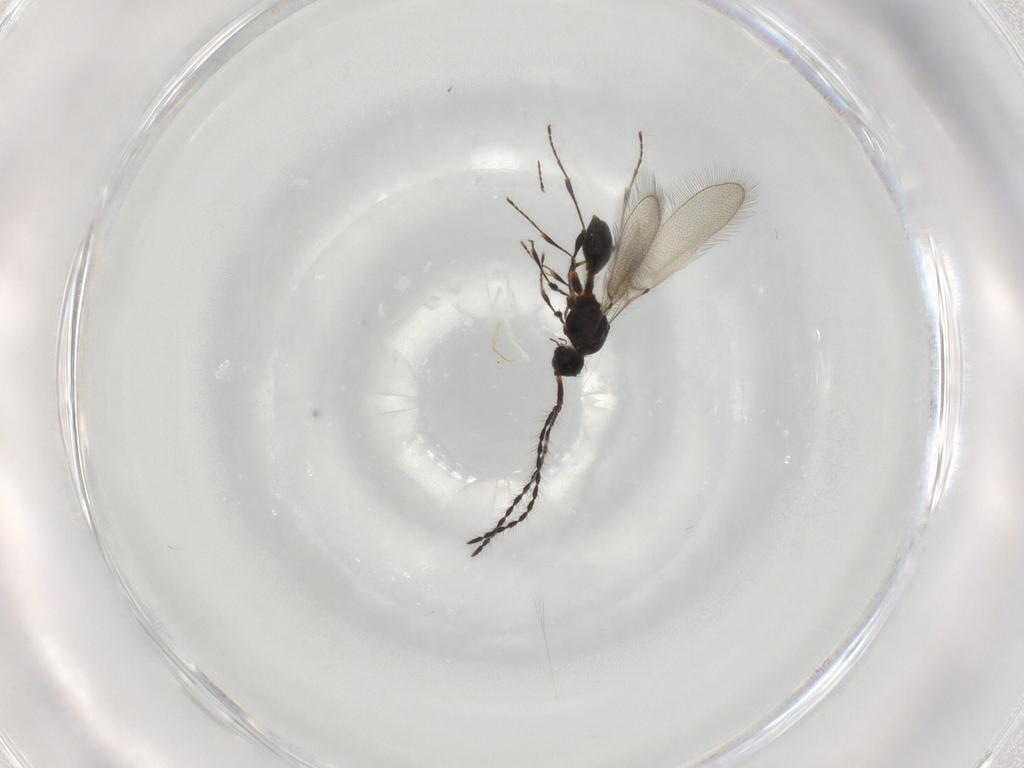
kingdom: Animalia
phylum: Arthropoda
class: Insecta
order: Hymenoptera
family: Diapriidae
